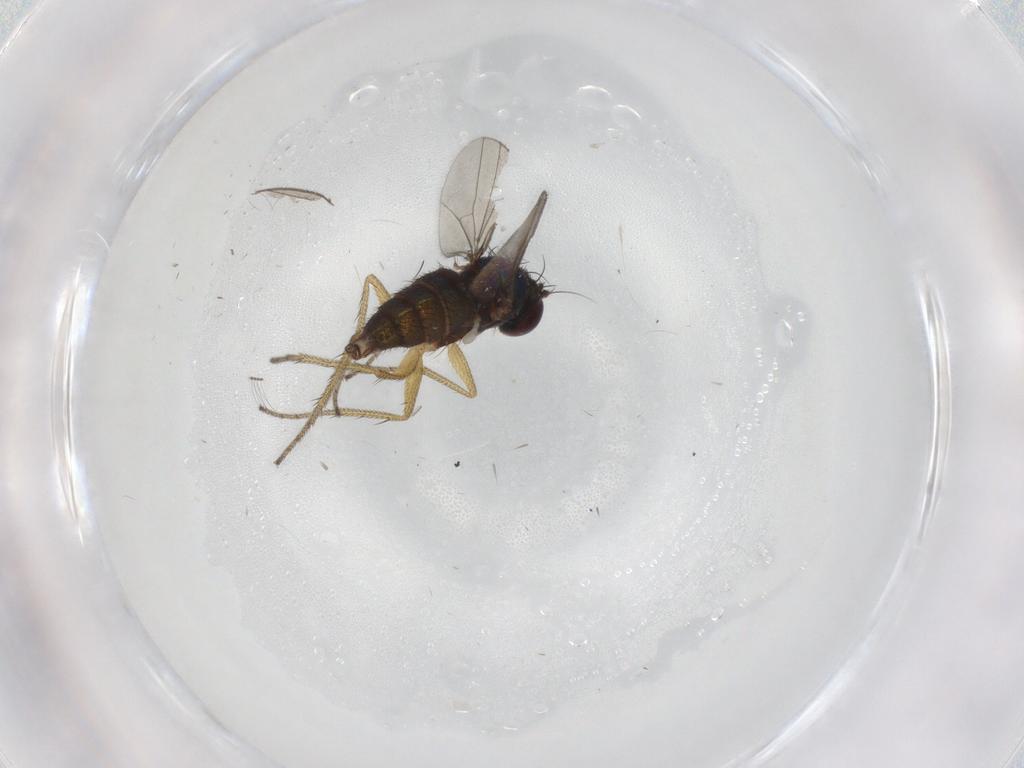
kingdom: Animalia
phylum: Arthropoda
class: Insecta
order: Diptera
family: Dolichopodidae
